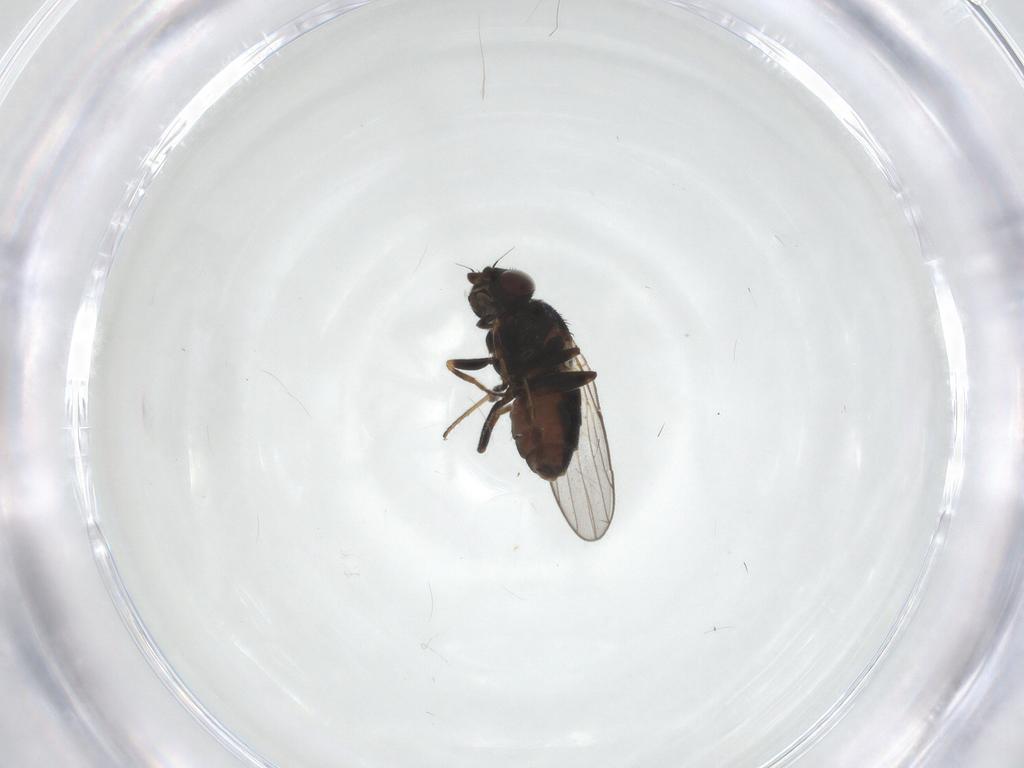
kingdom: Animalia
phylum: Arthropoda
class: Insecta
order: Diptera
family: Chloropidae
